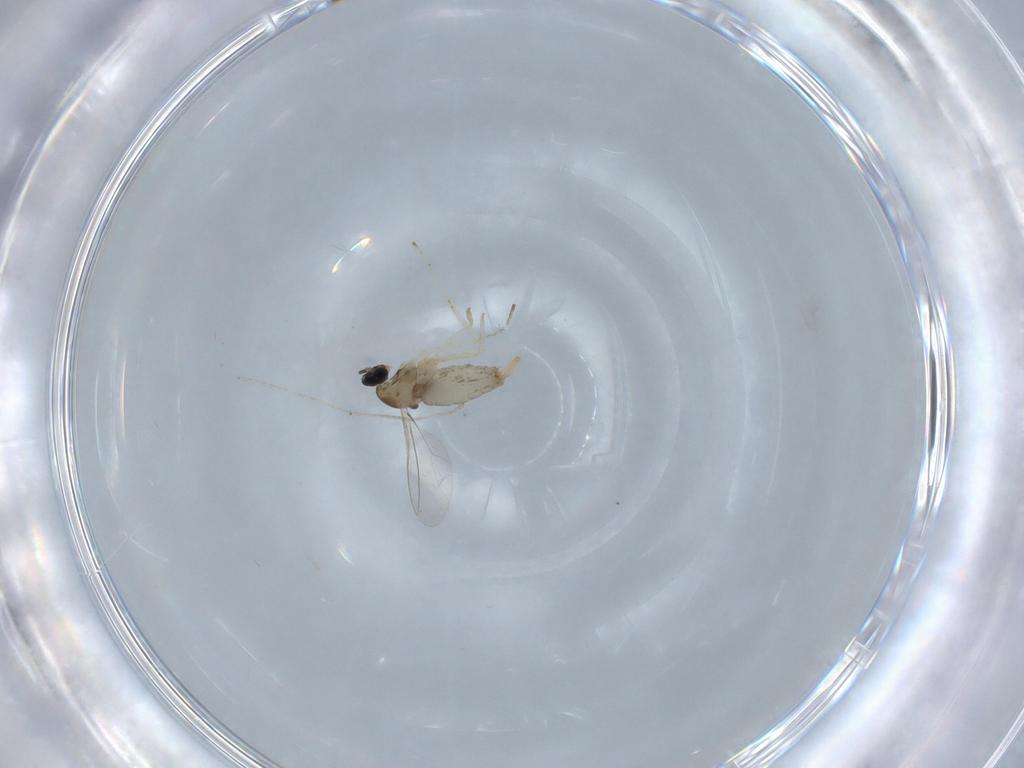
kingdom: Animalia
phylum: Arthropoda
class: Insecta
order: Diptera
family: Cecidomyiidae
